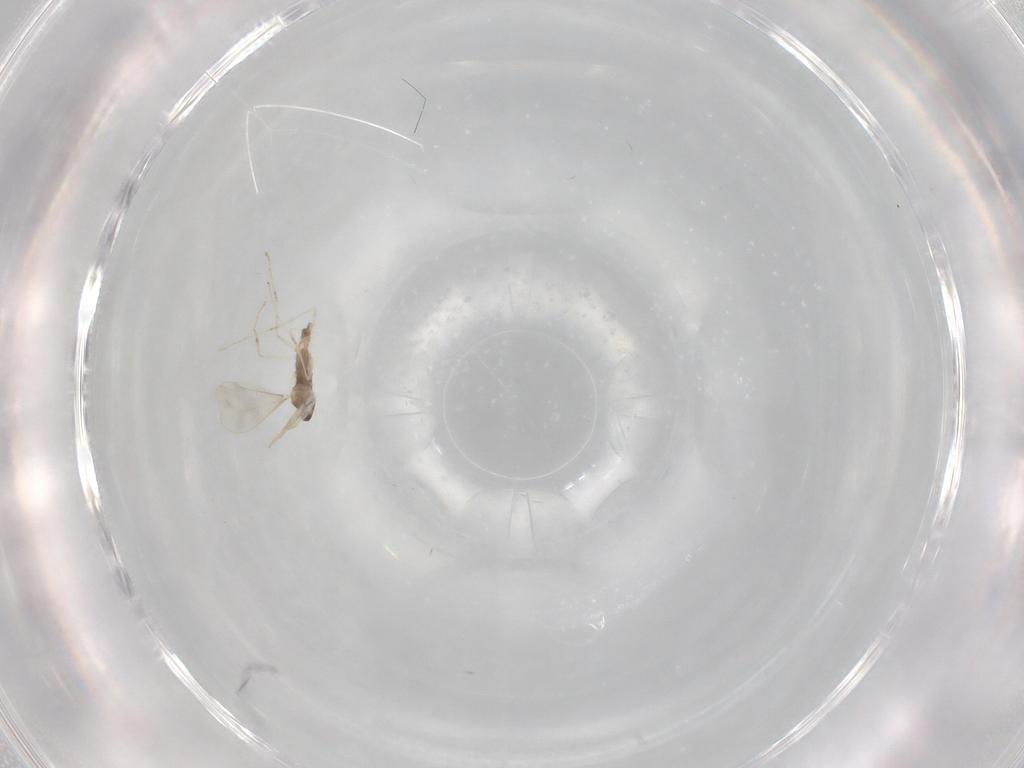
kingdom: Animalia
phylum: Arthropoda
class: Insecta
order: Diptera
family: Cecidomyiidae
